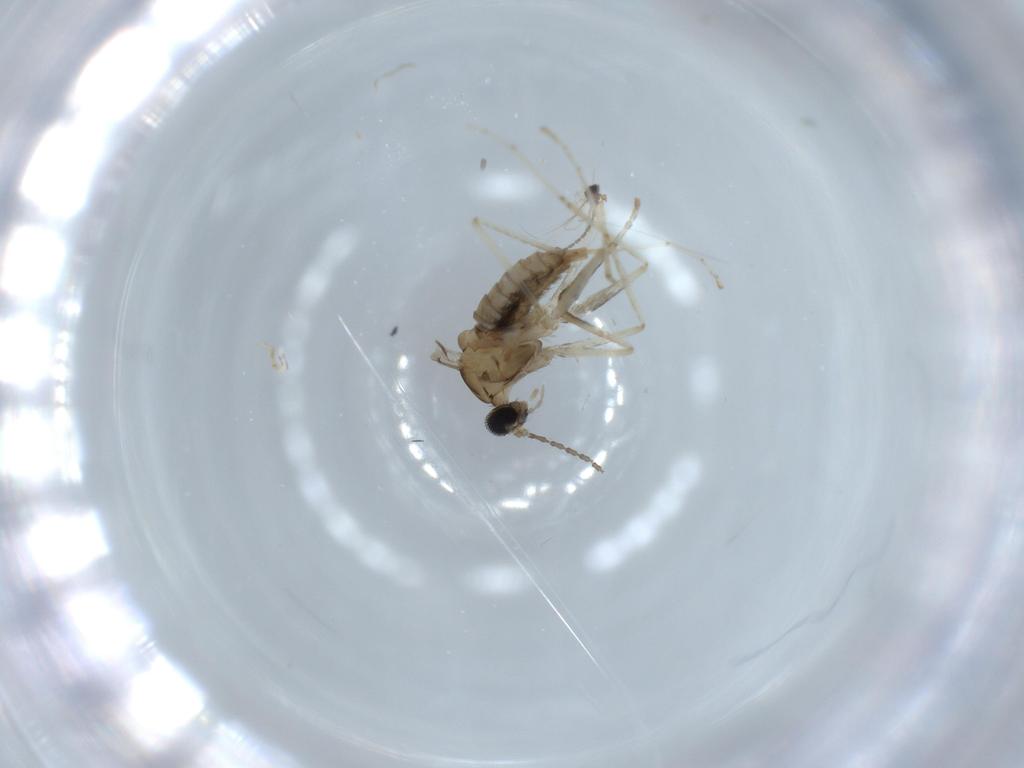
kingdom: Animalia
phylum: Arthropoda
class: Insecta
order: Diptera
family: Cecidomyiidae
